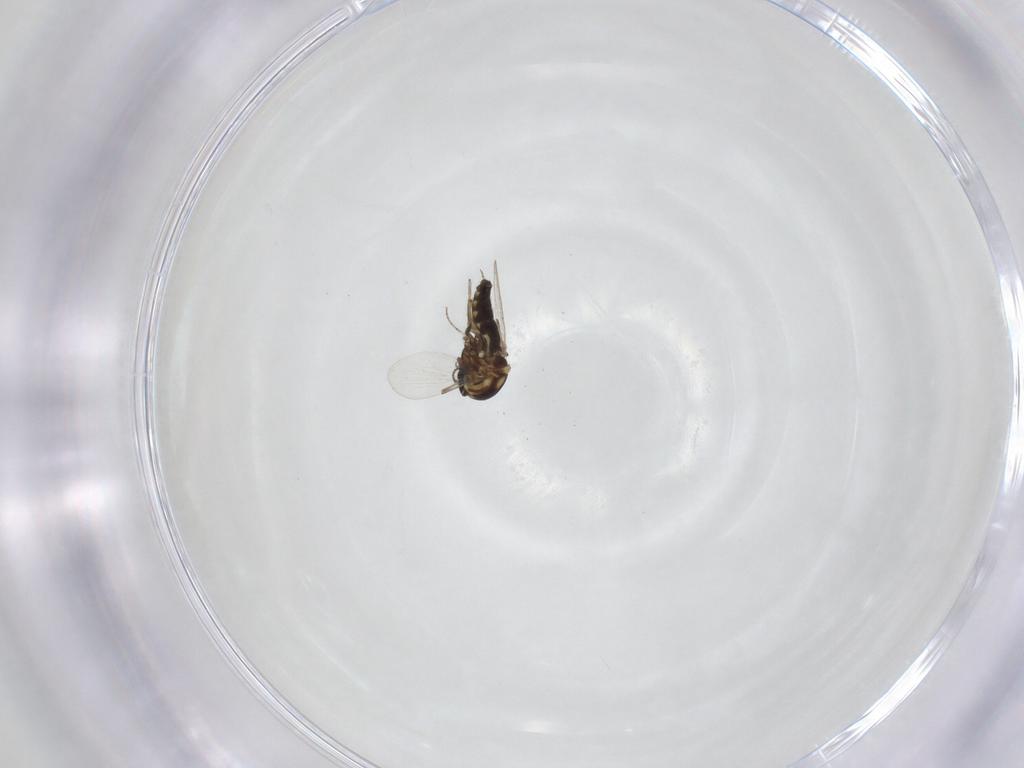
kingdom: Animalia
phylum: Arthropoda
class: Insecta
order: Diptera
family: Ceratopogonidae
